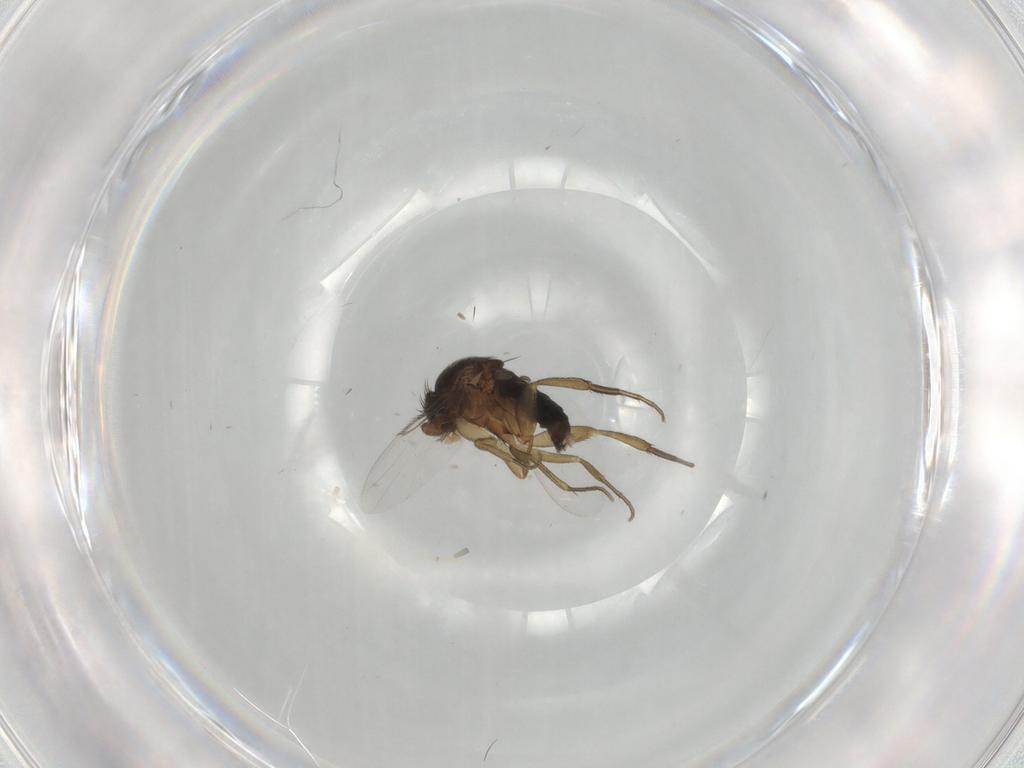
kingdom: Animalia
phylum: Arthropoda
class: Insecta
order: Diptera
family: Phoridae
